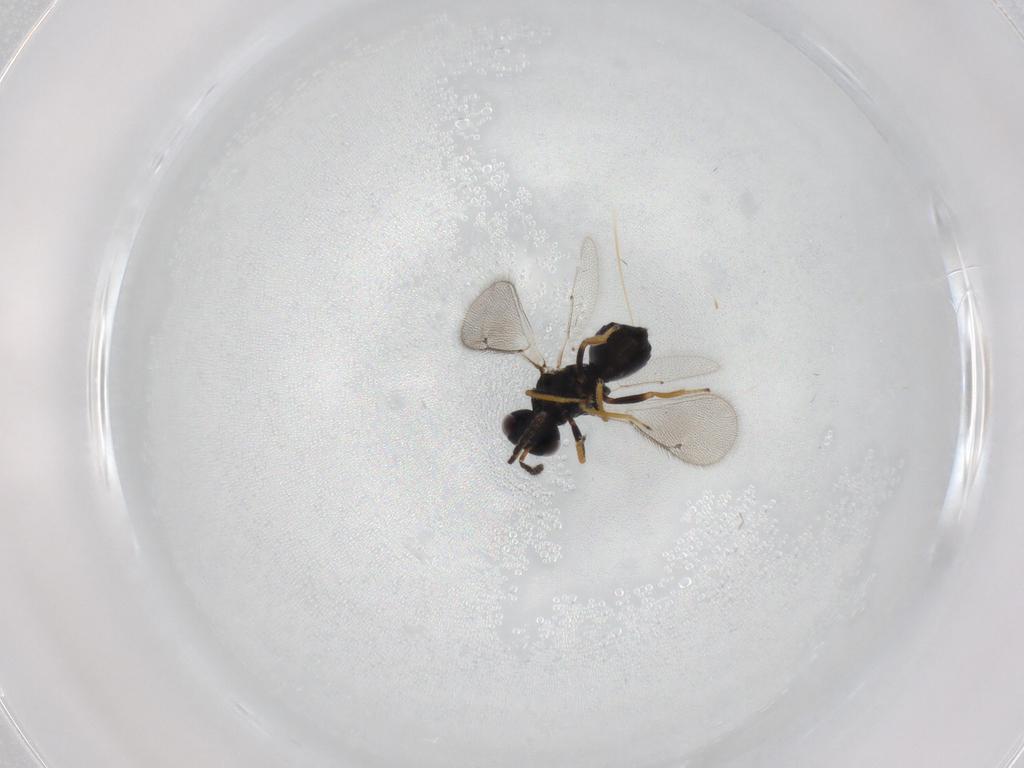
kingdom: Animalia
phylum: Arthropoda
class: Insecta
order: Hymenoptera
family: Eulophidae
